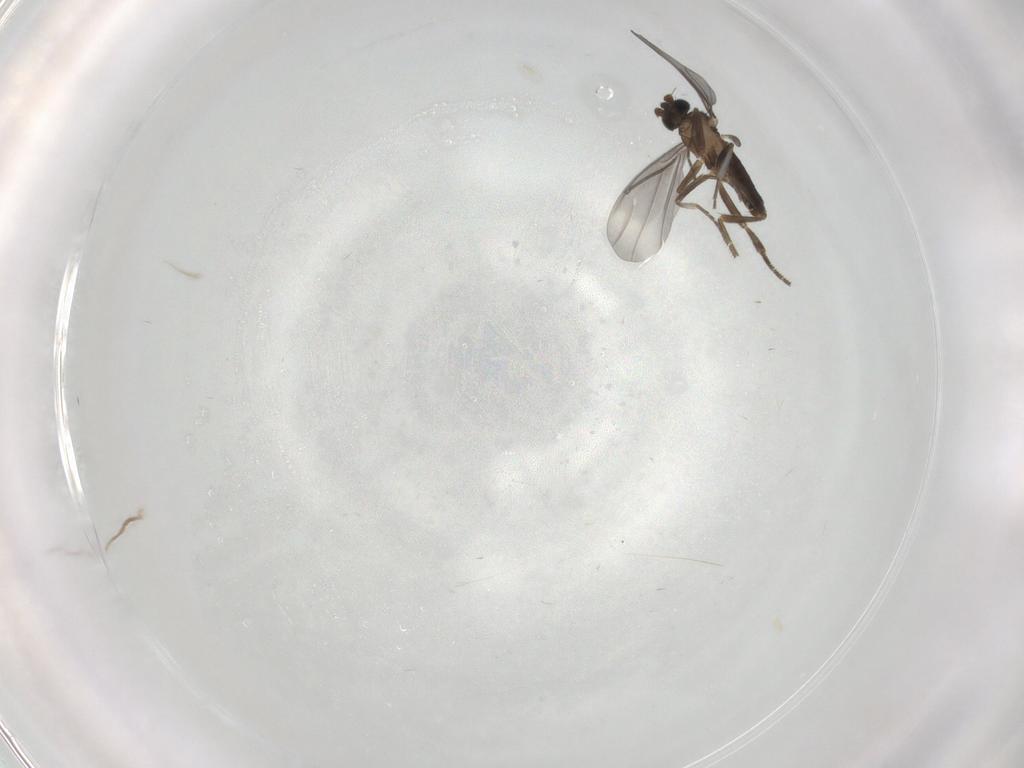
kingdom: Animalia
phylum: Arthropoda
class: Insecta
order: Diptera
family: Phoridae
